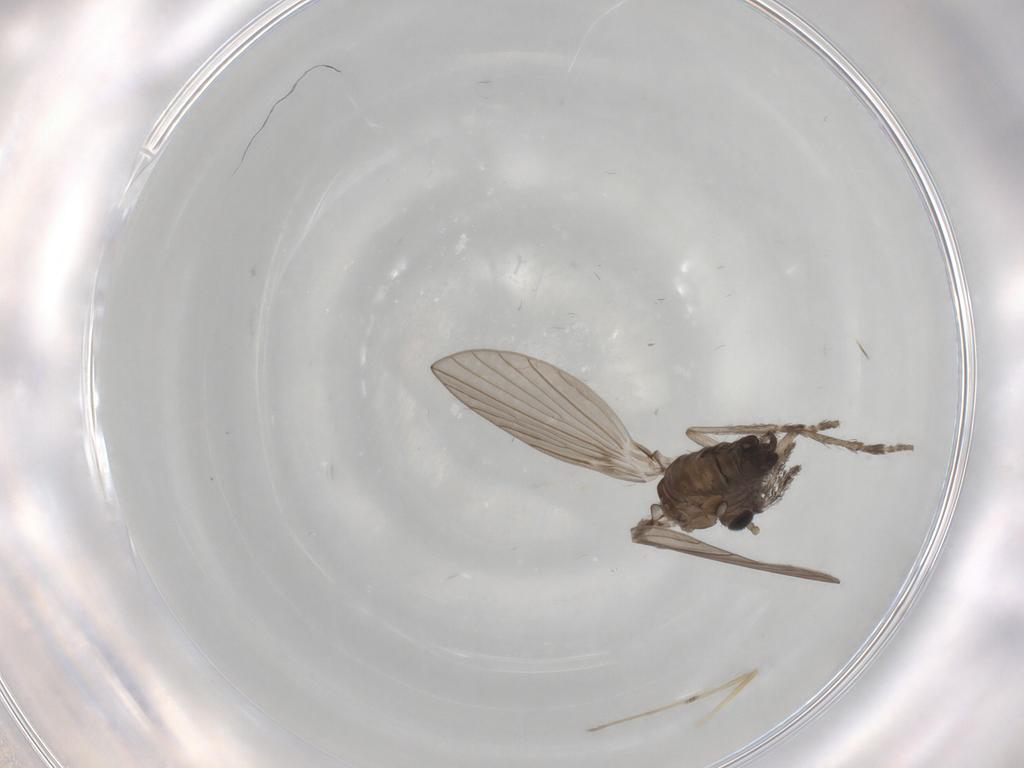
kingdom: Animalia
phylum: Arthropoda
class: Insecta
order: Diptera
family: Psychodidae
